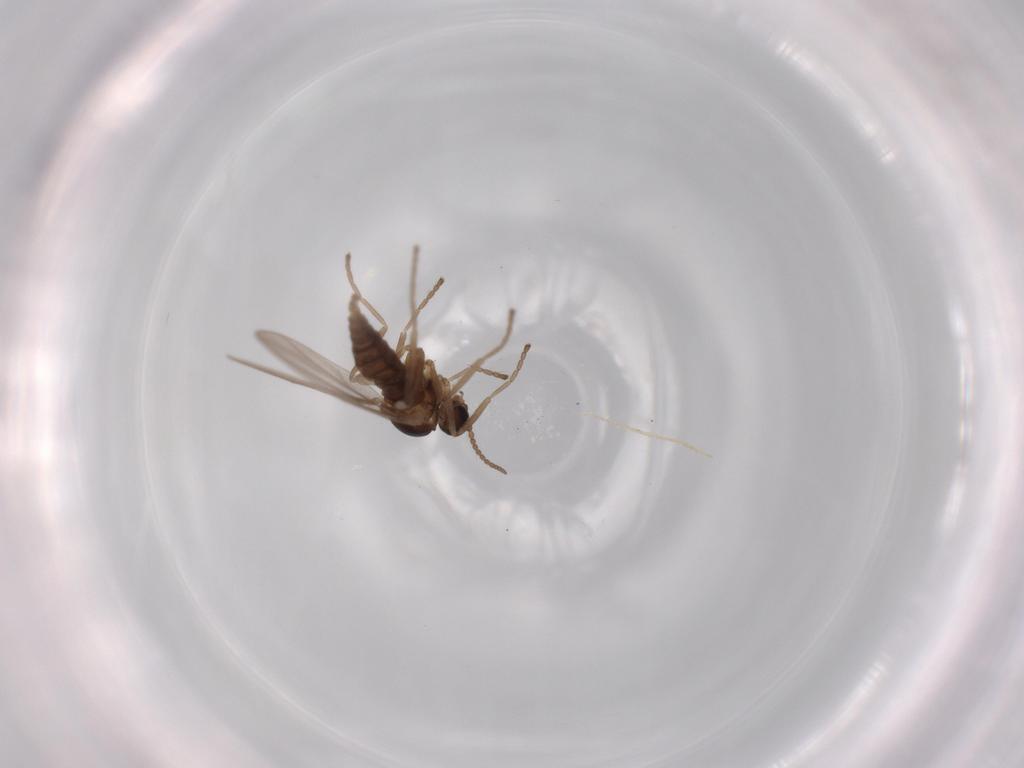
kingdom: Animalia
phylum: Arthropoda
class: Insecta
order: Diptera
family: Cecidomyiidae
